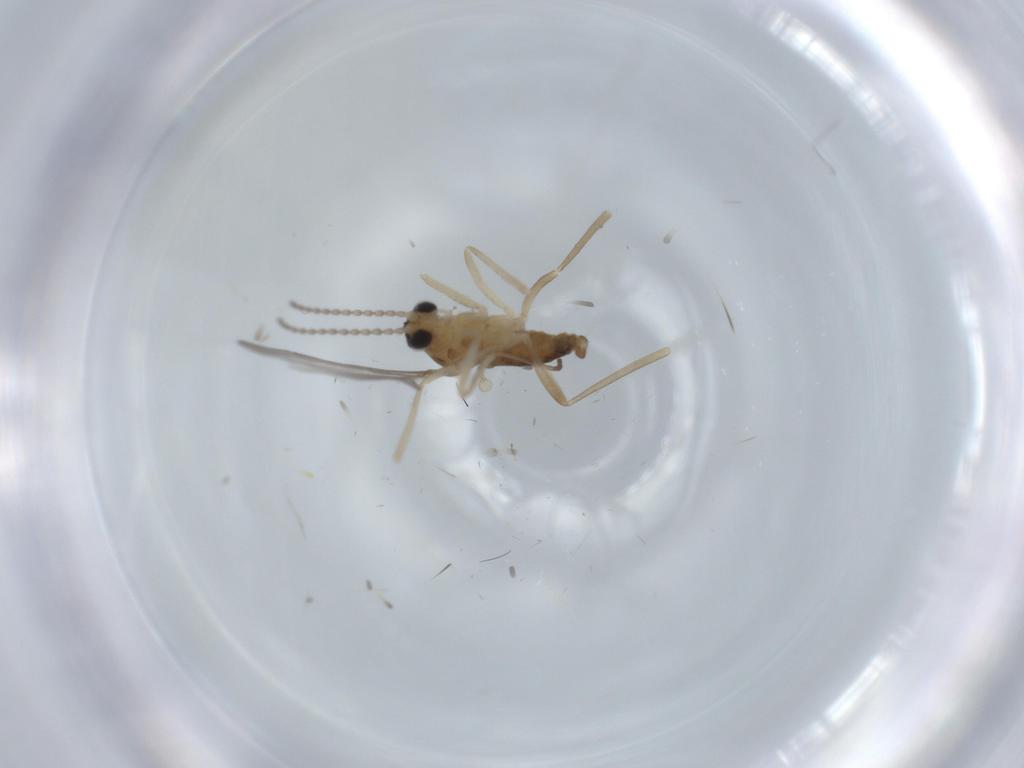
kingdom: Animalia
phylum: Arthropoda
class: Insecta
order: Diptera
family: Cecidomyiidae
